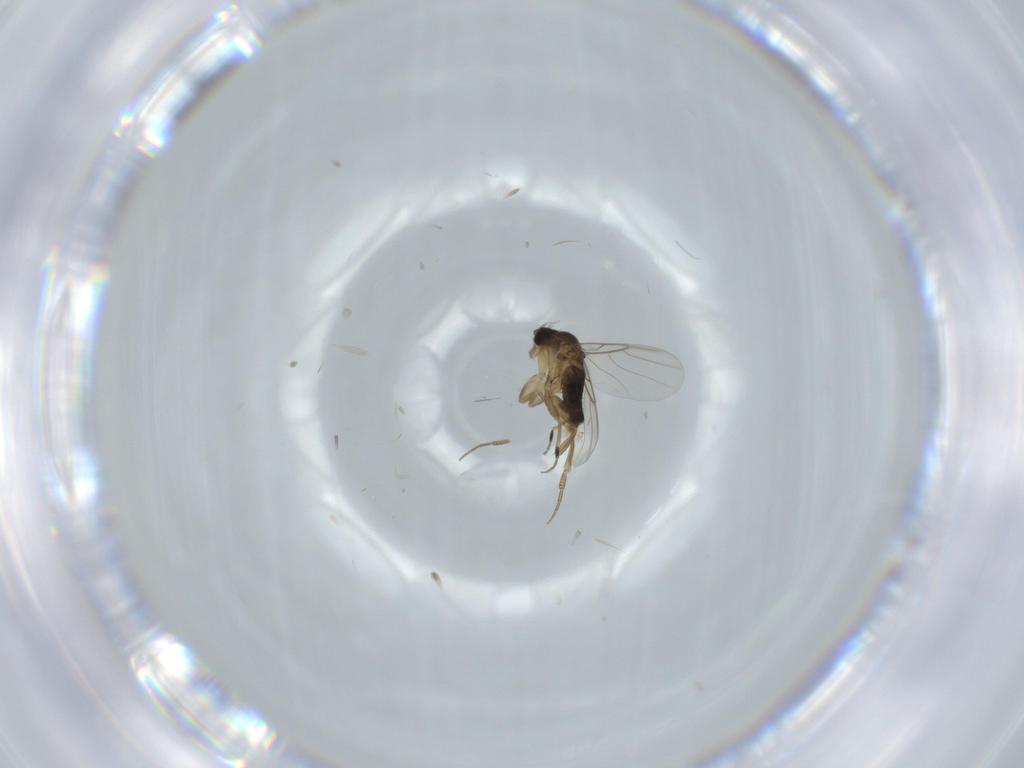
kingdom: Animalia
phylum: Arthropoda
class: Insecta
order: Diptera
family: Phoridae
